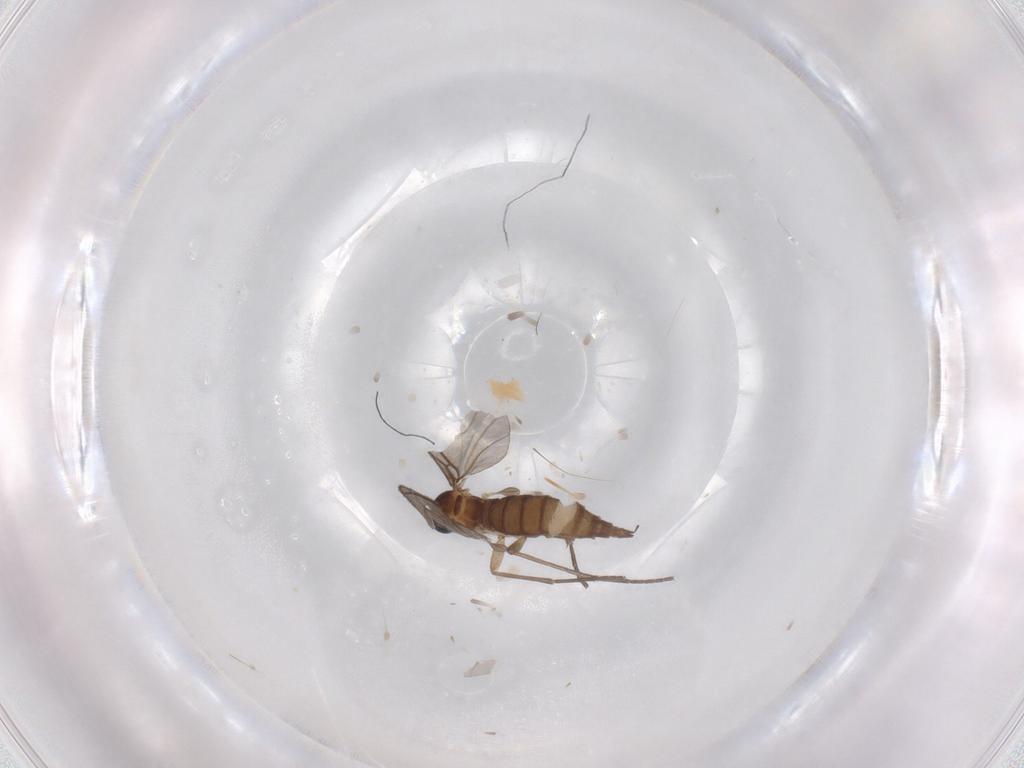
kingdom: Animalia
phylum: Arthropoda
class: Insecta
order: Diptera
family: Sciaridae
